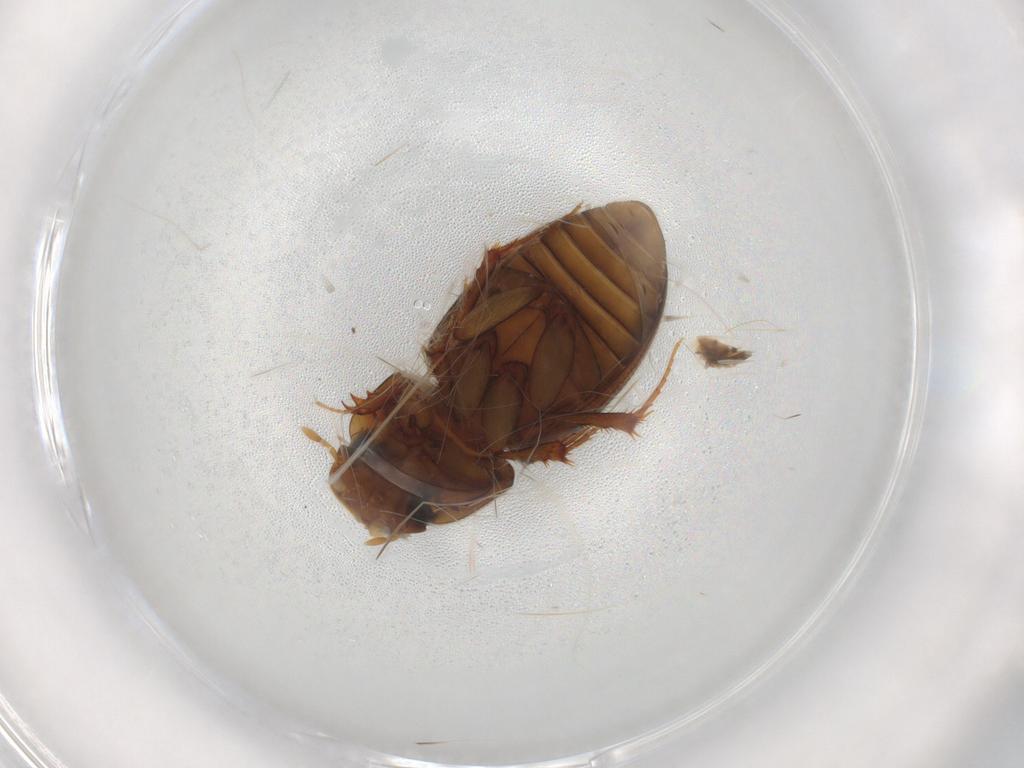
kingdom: Animalia
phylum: Arthropoda
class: Insecta
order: Coleoptera
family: Scarabaeidae
